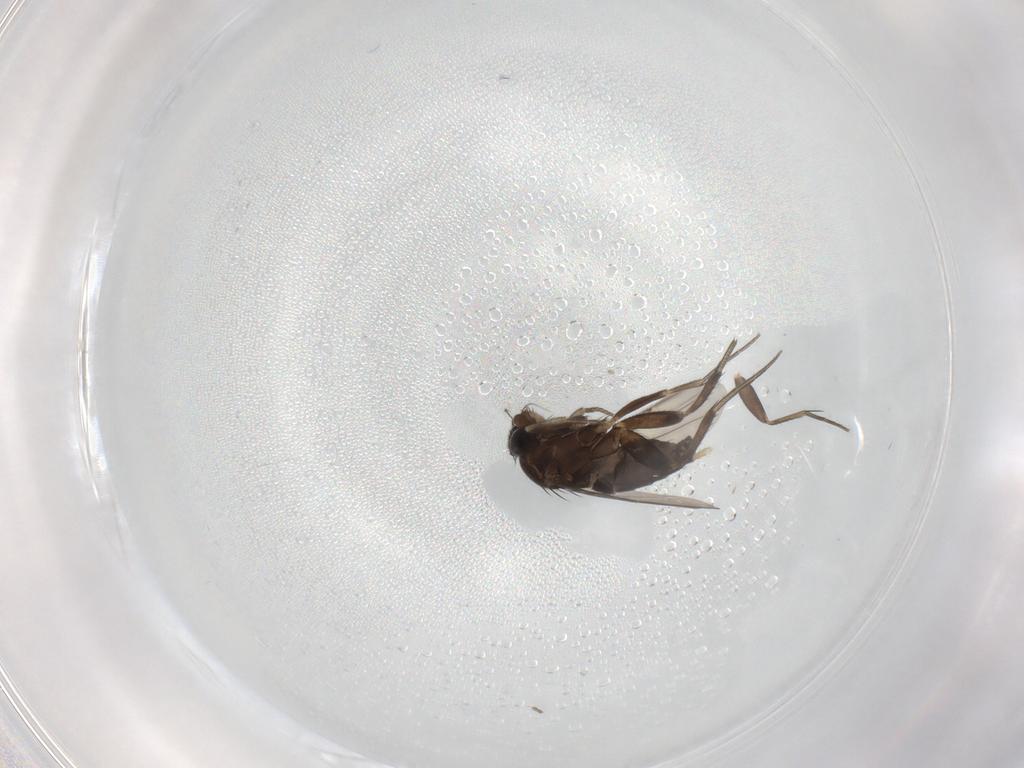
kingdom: Animalia
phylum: Arthropoda
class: Insecta
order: Diptera
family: Phoridae
